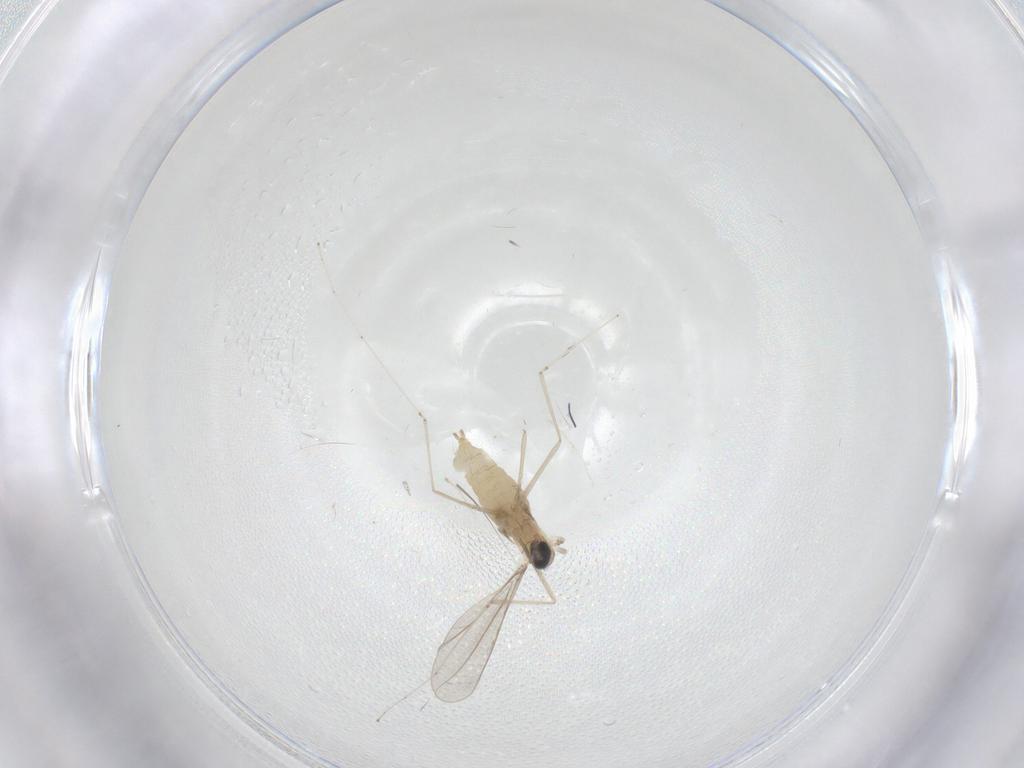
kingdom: Animalia
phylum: Arthropoda
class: Insecta
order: Diptera
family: Cecidomyiidae
